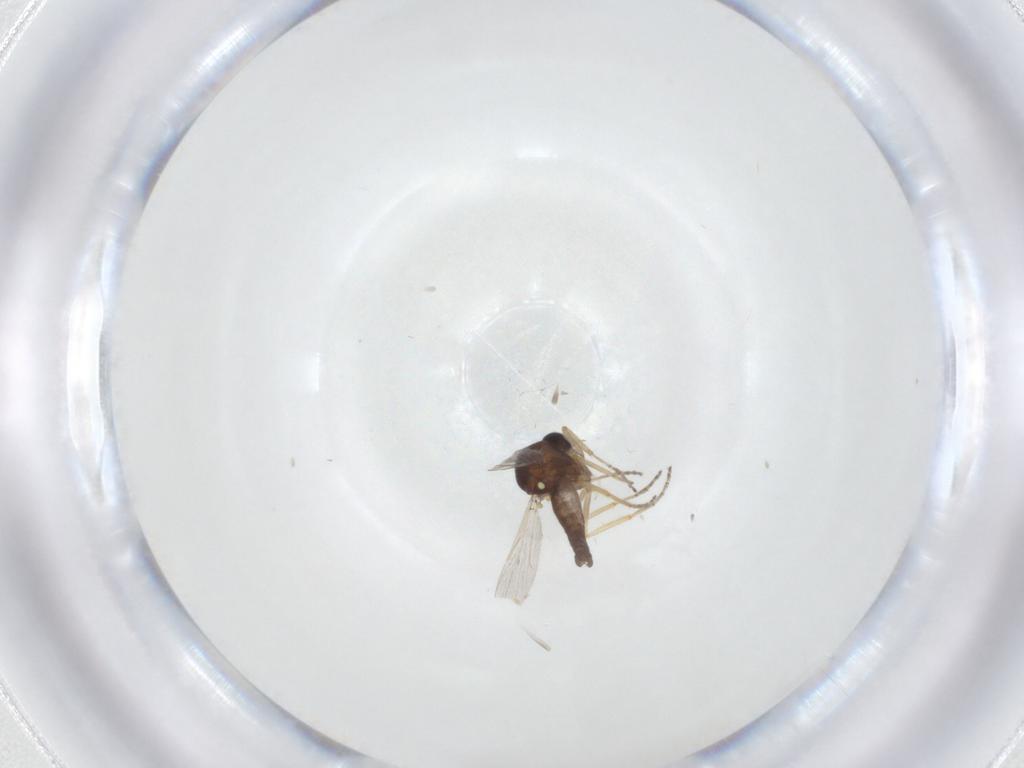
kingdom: Animalia
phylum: Arthropoda
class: Insecta
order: Diptera
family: Ceratopogonidae
